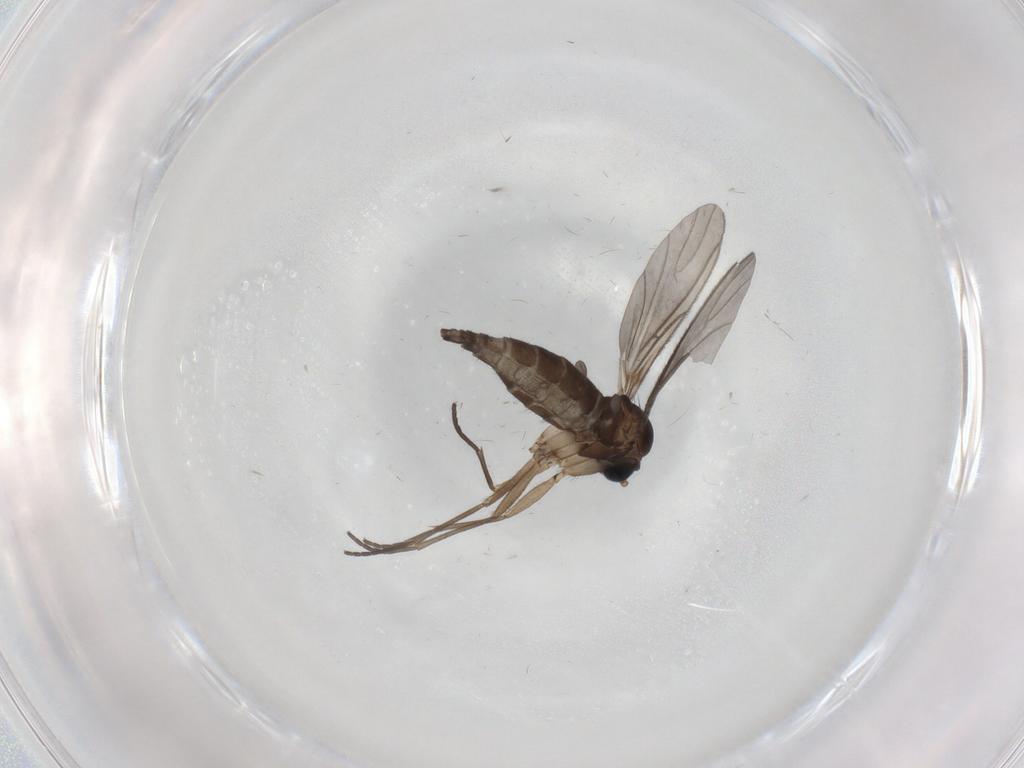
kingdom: Animalia
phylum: Arthropoda
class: Insecta
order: Diptera
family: Sciaridae
